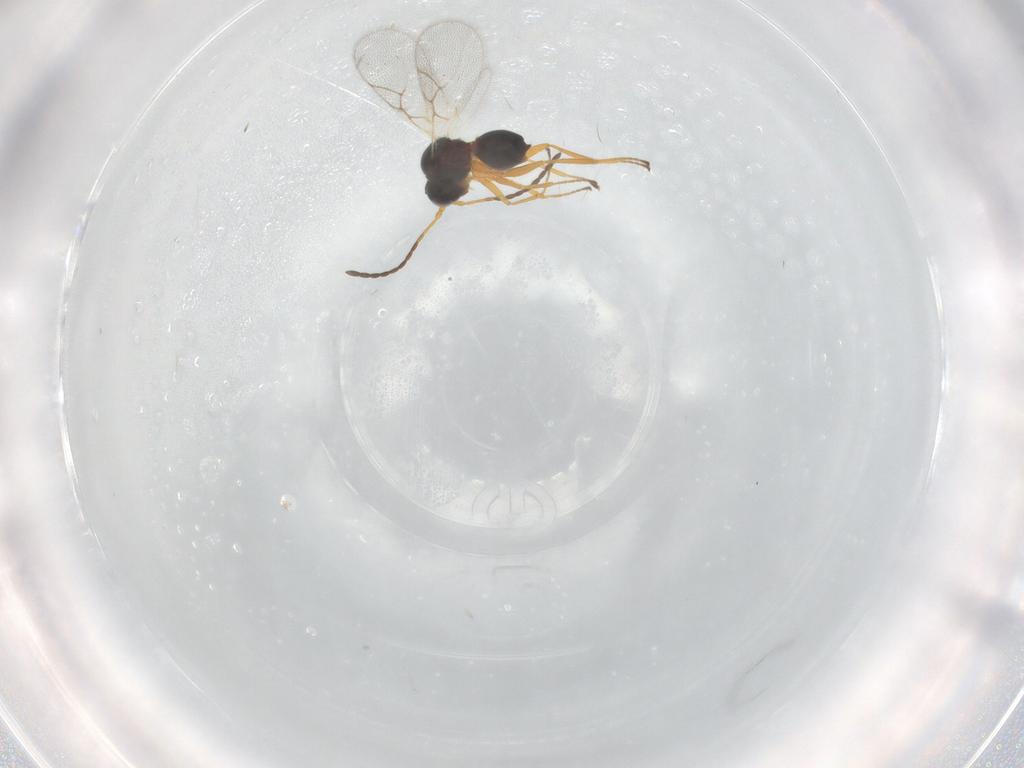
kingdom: Animalia
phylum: Arthropoda
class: Insecta
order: Hymenoptera
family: Figitidae
